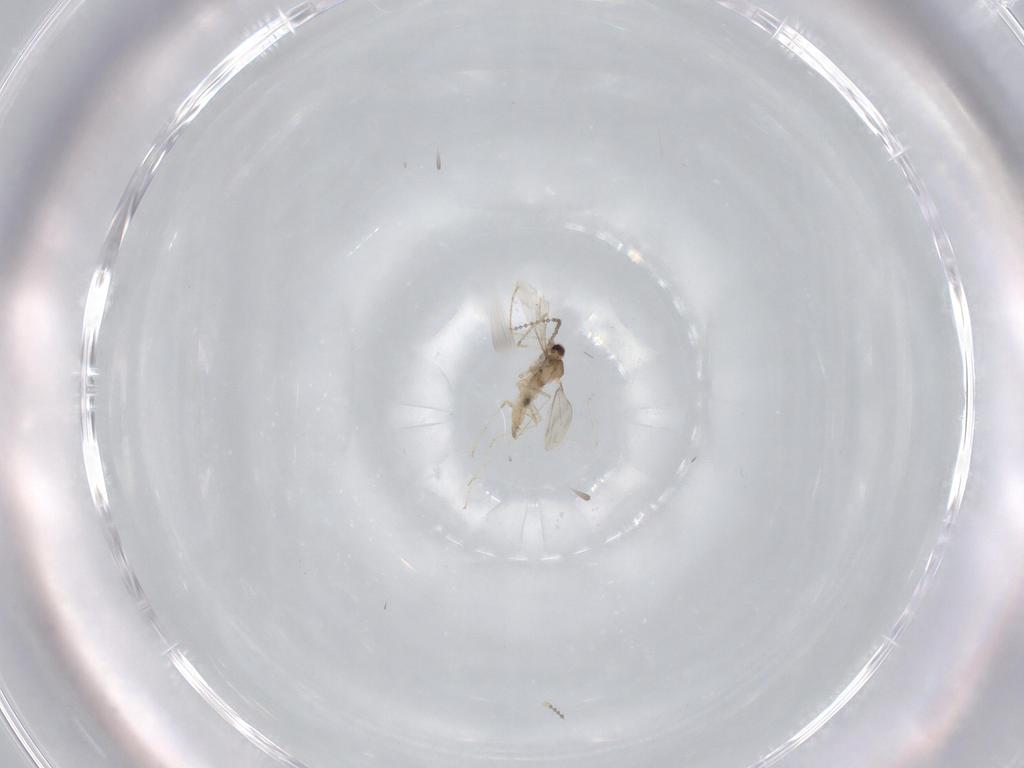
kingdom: Animalia
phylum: Arthropoda
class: Insecta
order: Diptera
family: Cecidomyiidae
